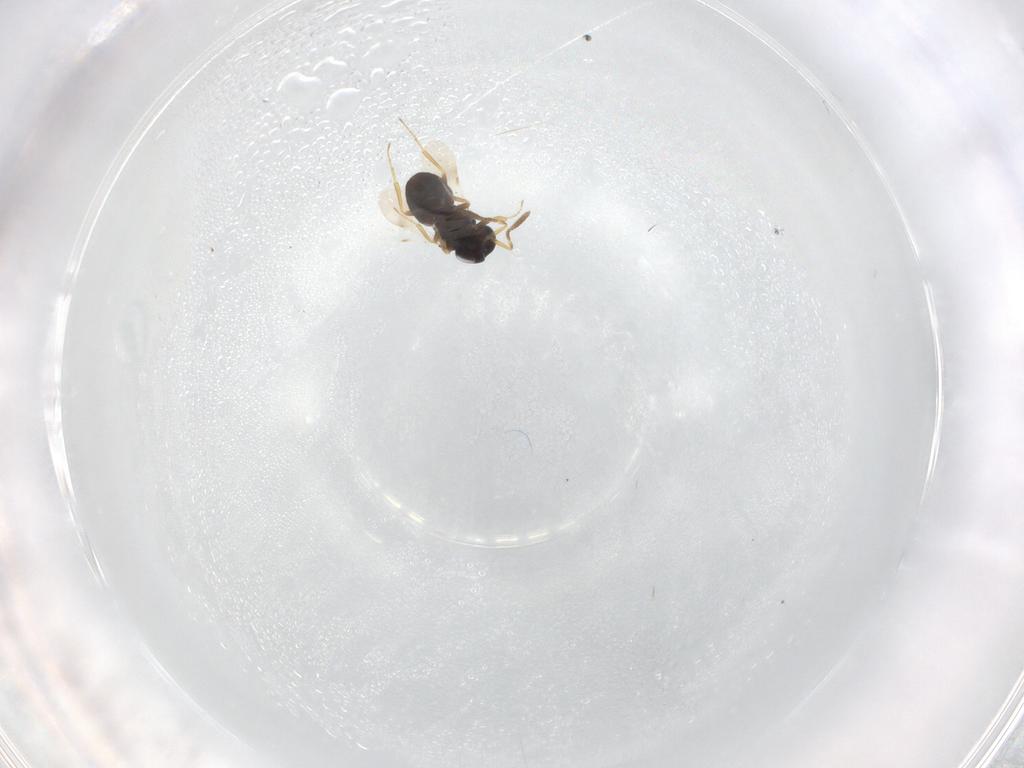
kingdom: Animalia
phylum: Arthropoda
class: Insecta
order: Hymenoptera
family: Scelionidae
